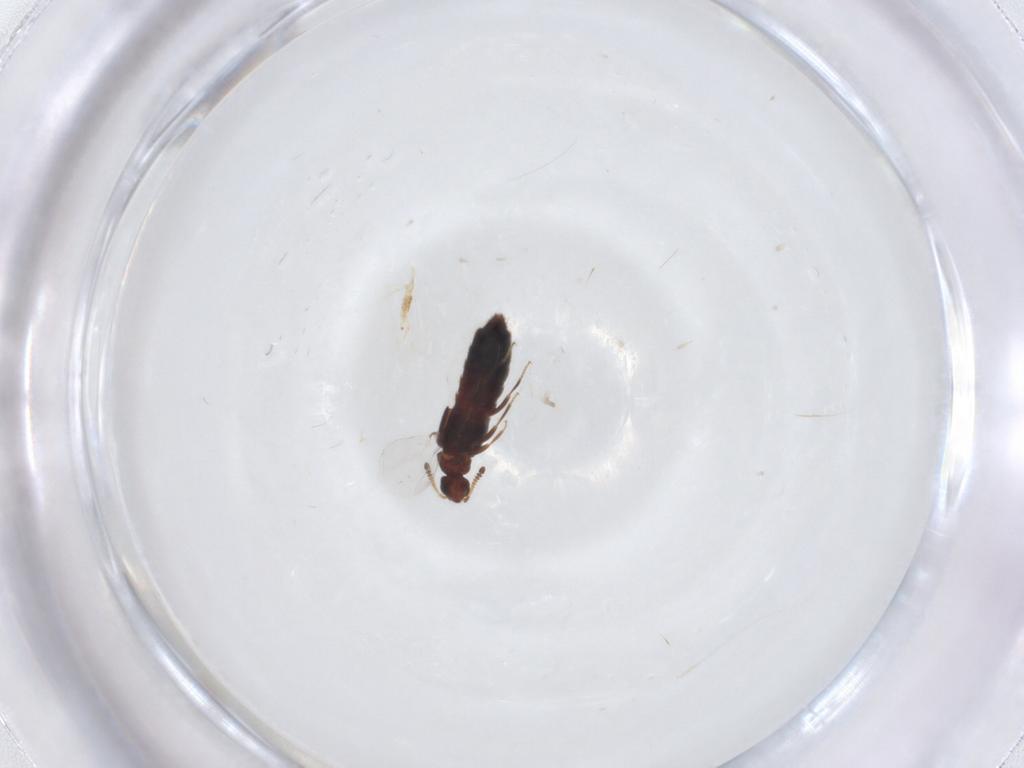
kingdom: Animalia
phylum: Arthropoda
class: Insecta
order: Coleoptera
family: Staphylinidae
